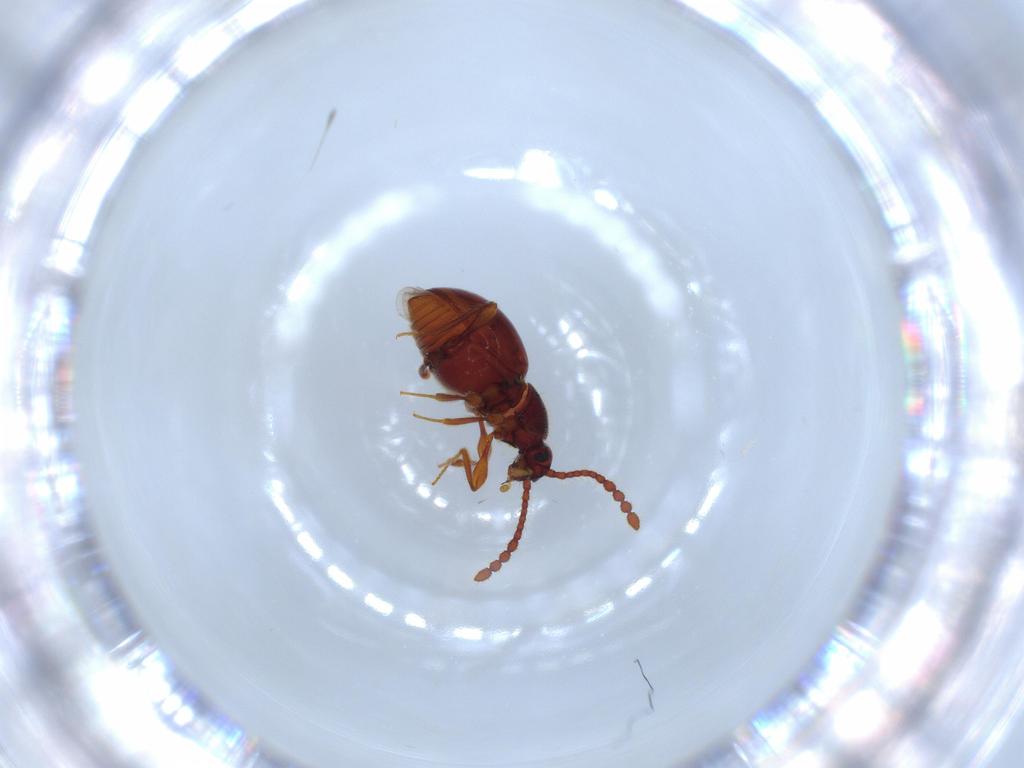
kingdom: Animalia
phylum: Arthropoda
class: Insecta
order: Coleoptera
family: Staphylinidae
